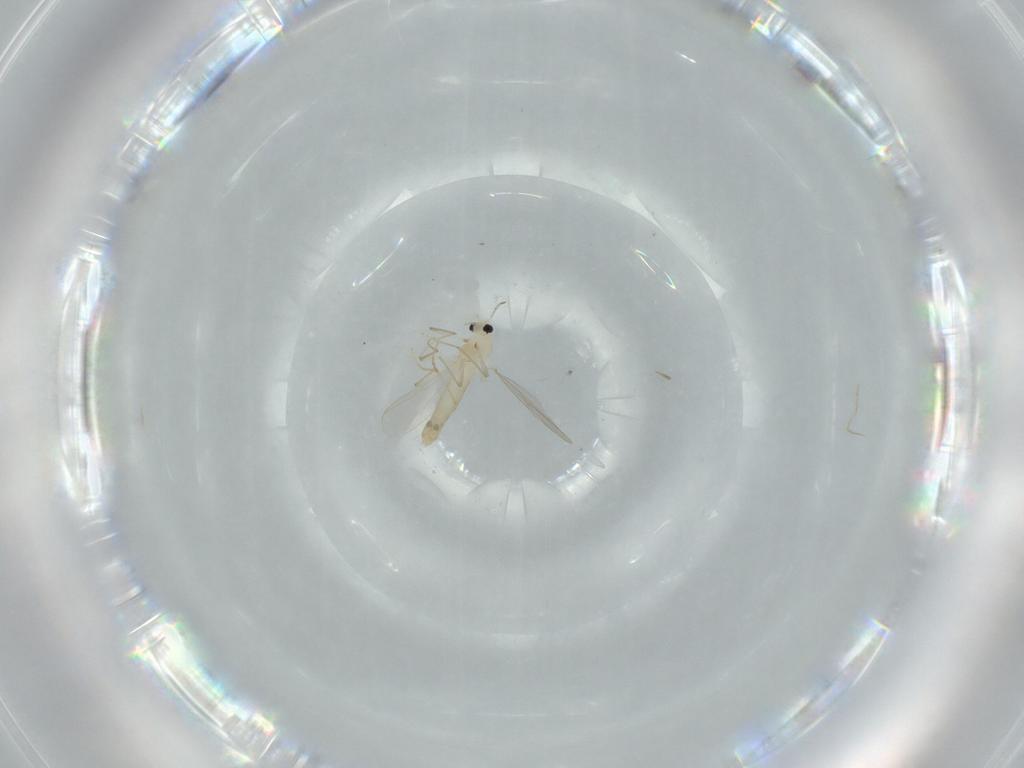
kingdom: Animalia
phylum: Arthropoda
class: Insecta
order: Diptera
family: Chironomidae
